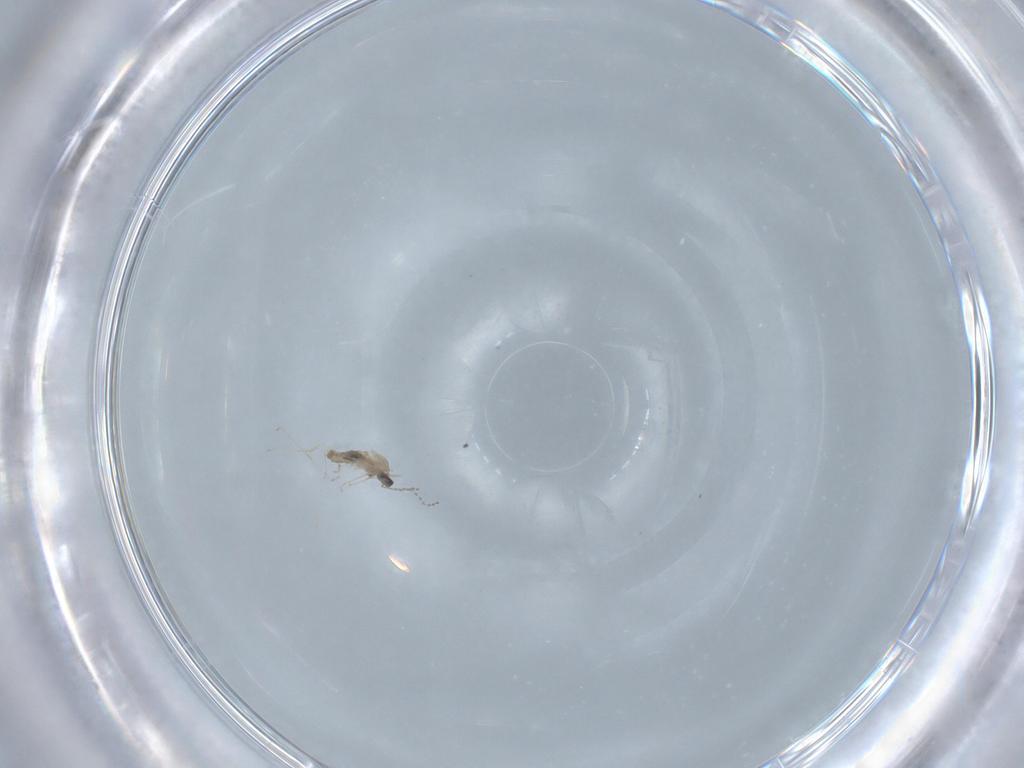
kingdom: Animalia
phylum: Arthropoda
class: Insecta
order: Diptera
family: Cecidomyiidae
